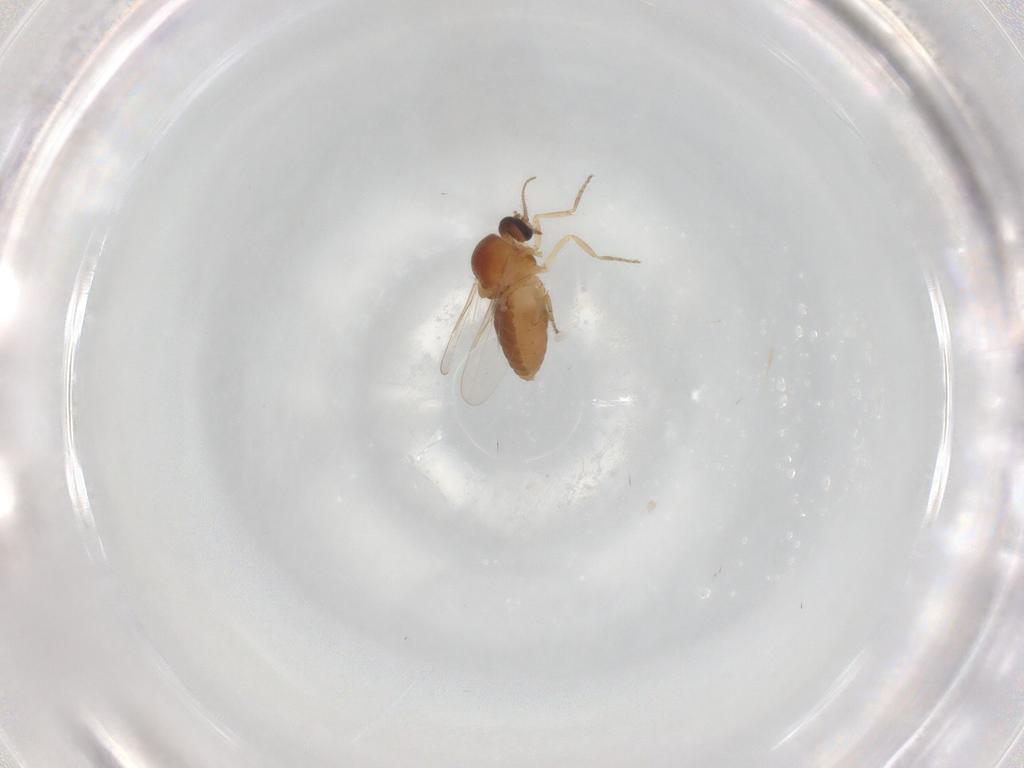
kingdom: Animalia
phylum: Arthropoda
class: Insecta
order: Diptera
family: Ceratopogonidae
